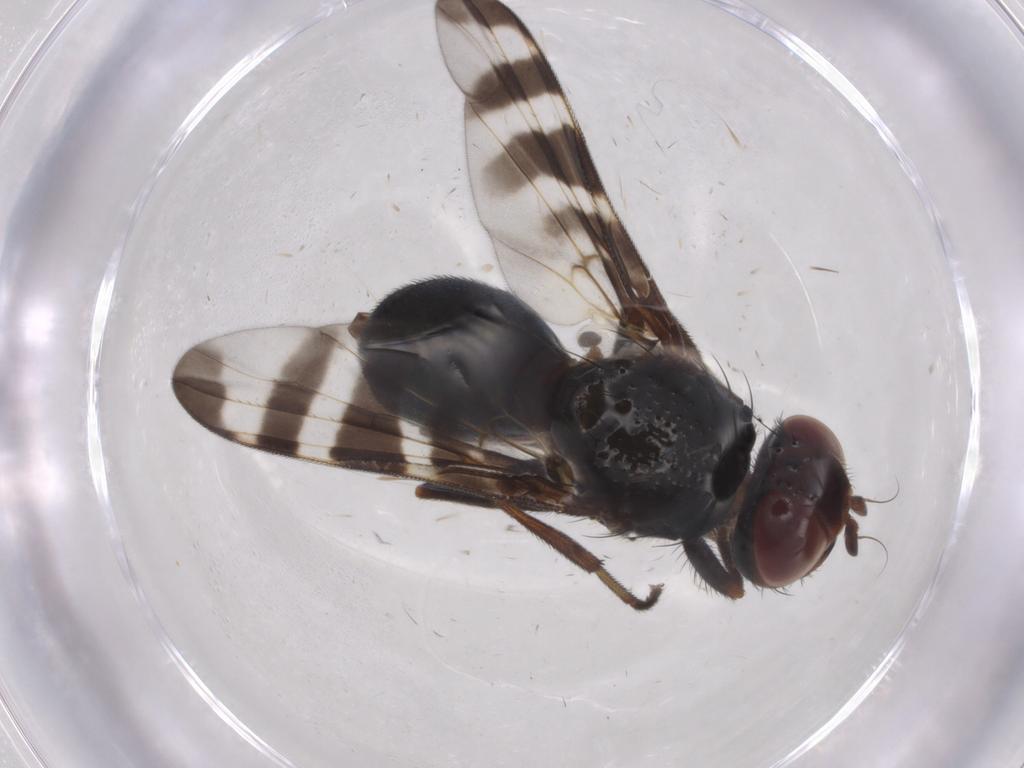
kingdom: Animalia
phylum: Arthropoda
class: Insecta
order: Diptera
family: Platystomatidae
